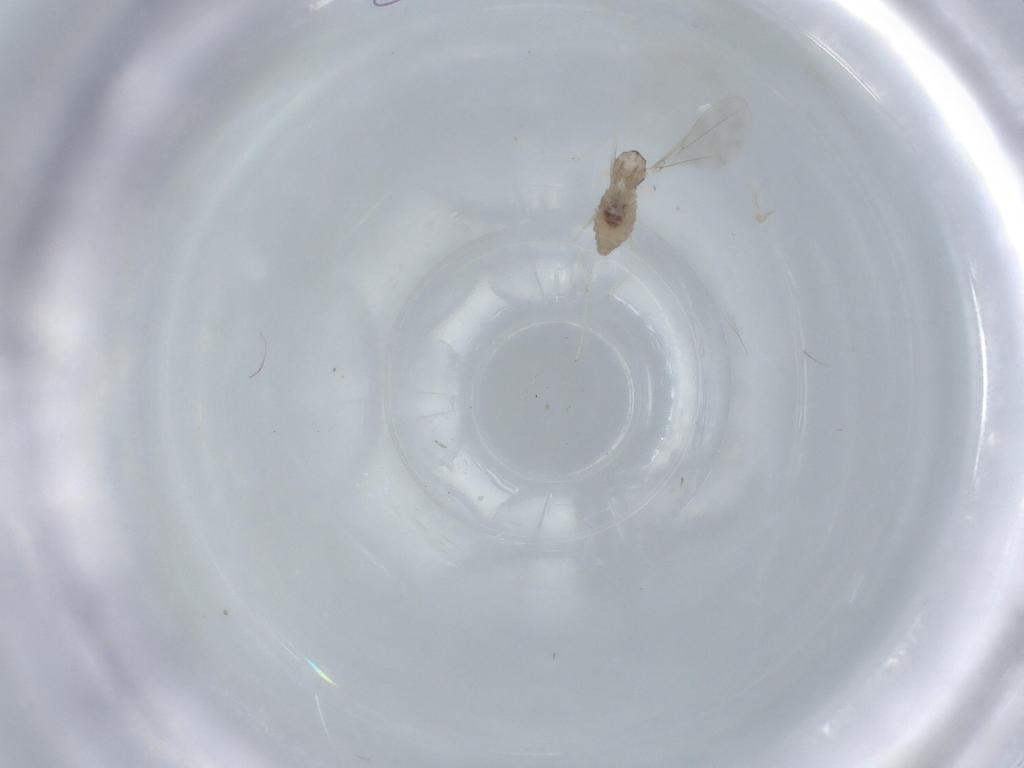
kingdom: Animalia
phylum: Arthropoda
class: Insecta
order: Diptera
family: Cecidomyiidae
